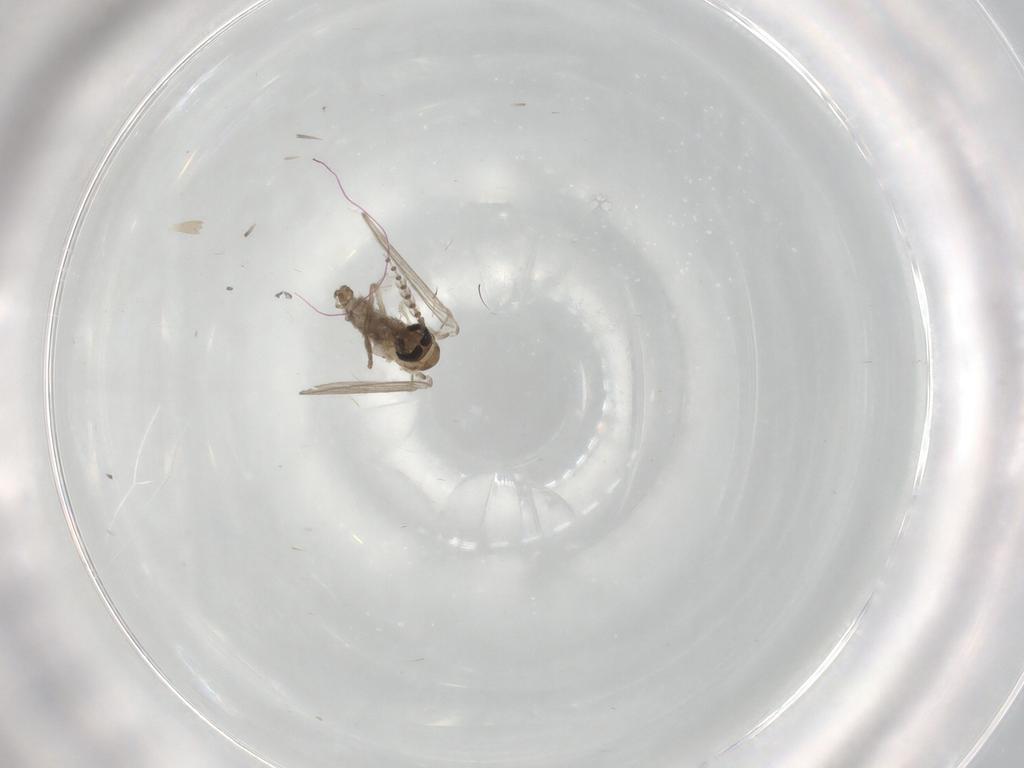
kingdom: Animalia
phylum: Arthropoda
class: Insecta
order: Diptera
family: Psychodidae
